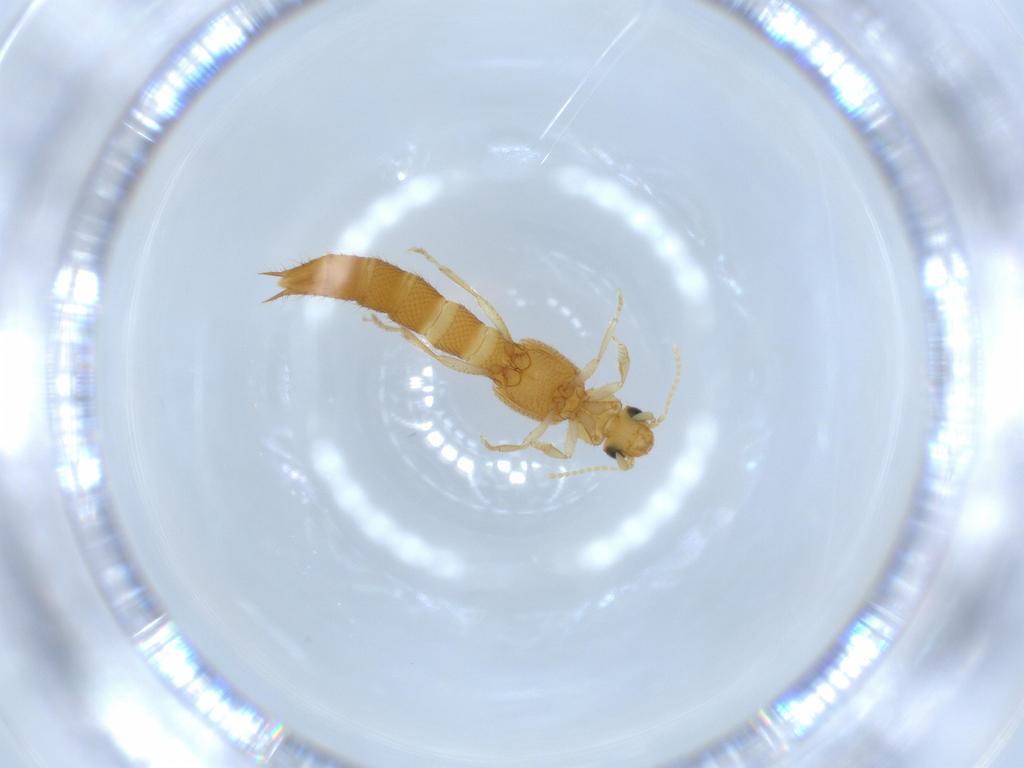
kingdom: Animalia
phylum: Arthropoda
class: Insecta
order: Coleoptera
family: Staphylinidae
